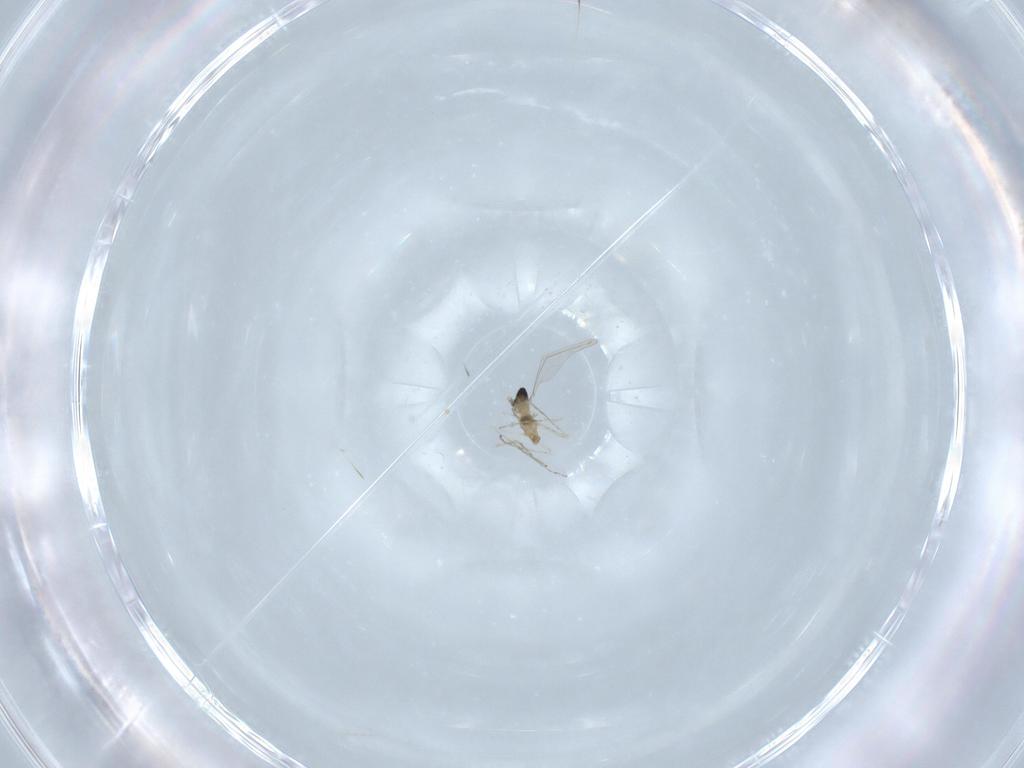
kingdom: Animalia
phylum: Arthropoda
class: Insecta
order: Diptera
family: Cecidomyiidae
